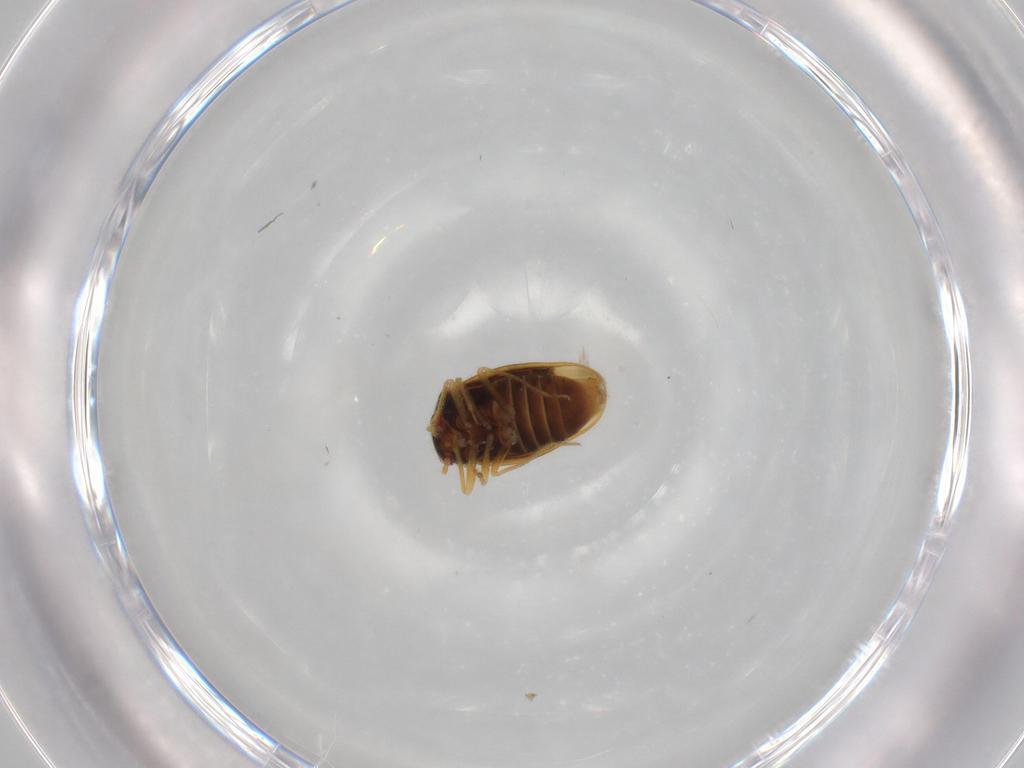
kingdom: Animalia
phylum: Arthropoda
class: Insecta
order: Hemiptera
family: Schizopteridae
